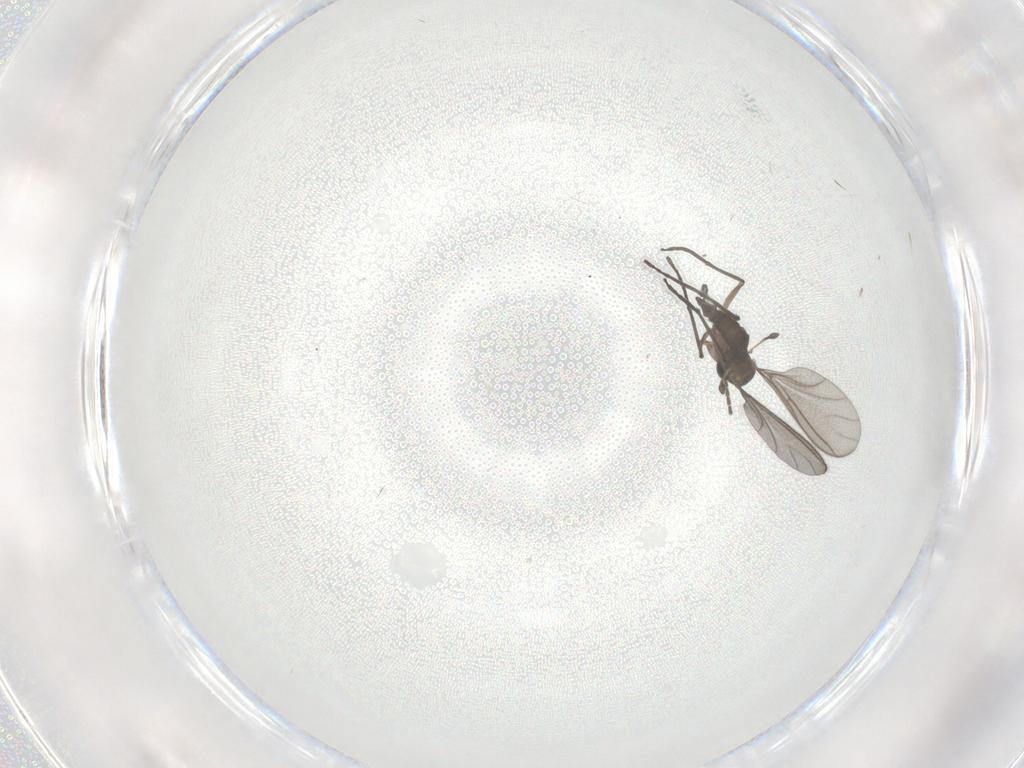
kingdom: Animalia
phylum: Arthropoda
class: Insecta
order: Diptera
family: Sciaridae
